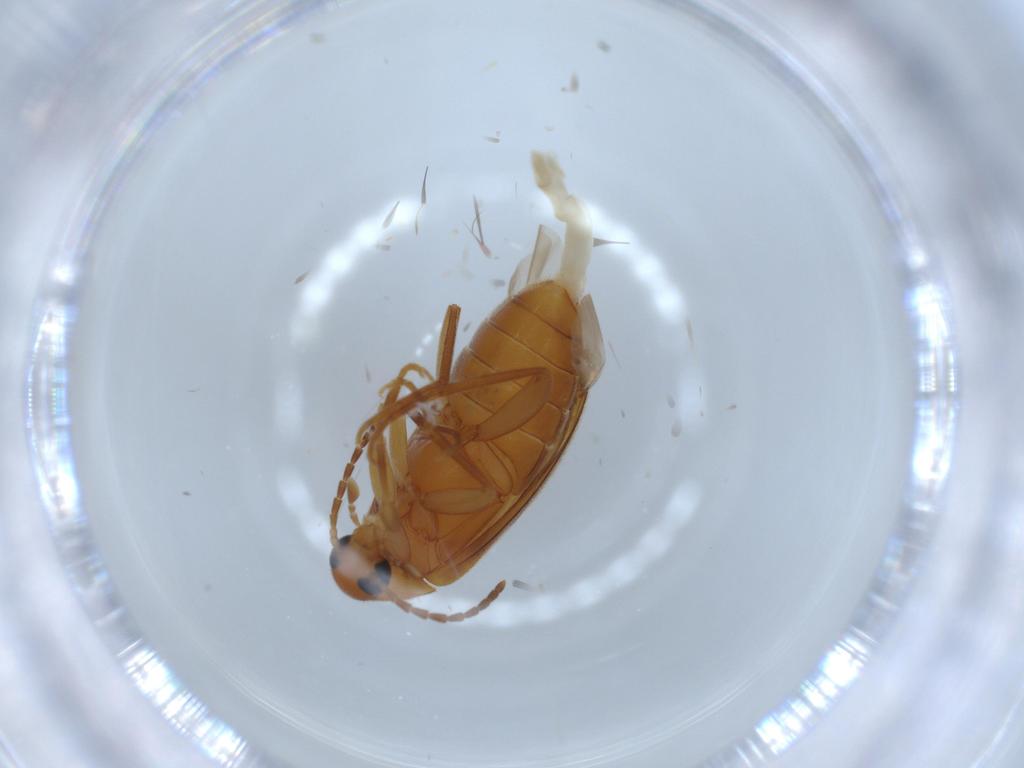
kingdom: Animalia
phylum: Arthropoda
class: Insecta
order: Coleoptera
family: Scraptiidae
